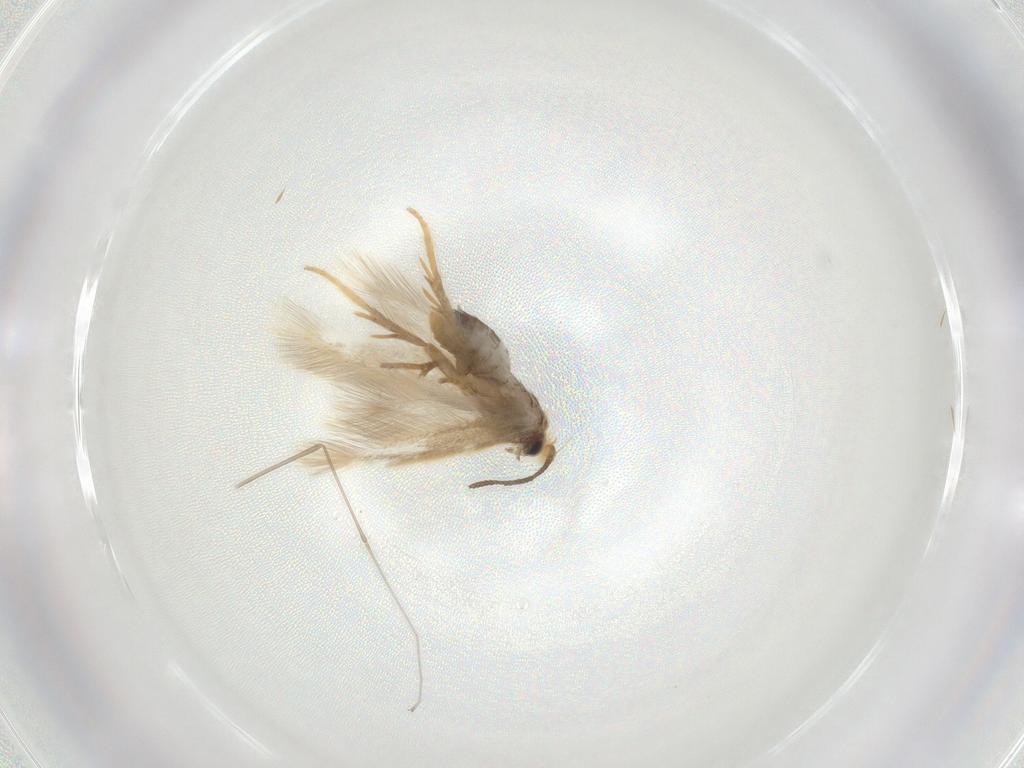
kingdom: Animalia
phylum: Arthropoda
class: Insecta
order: Lepidoptera
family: Nepticulidae
